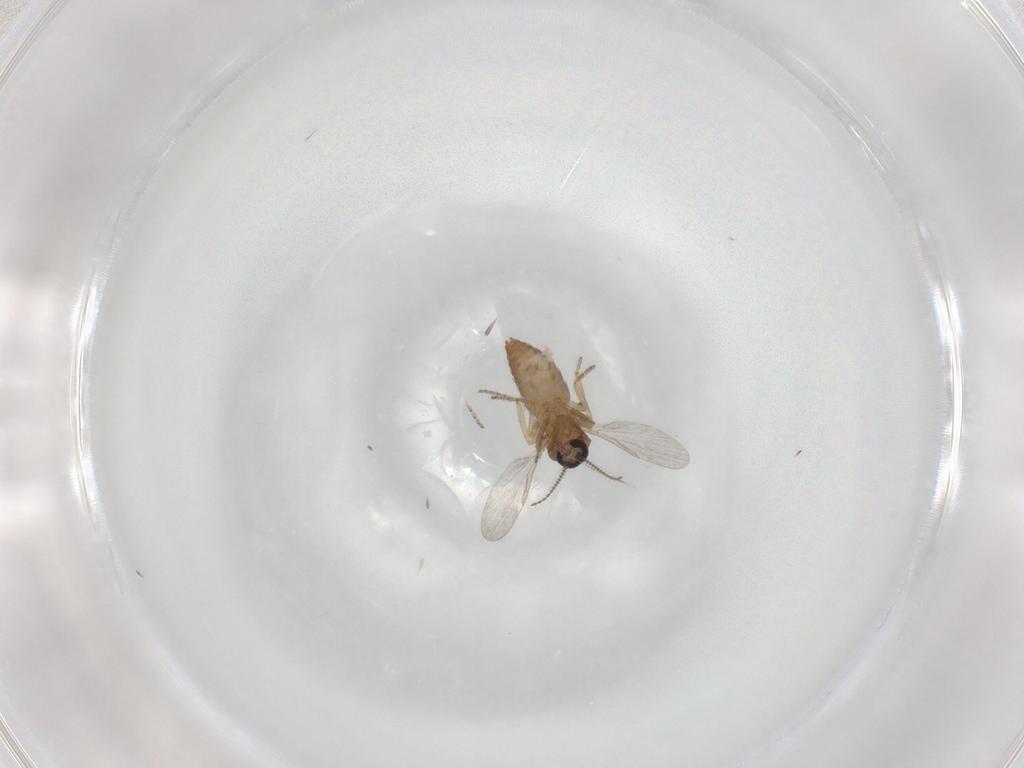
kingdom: Animalia
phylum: Arthropoda
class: Insecta
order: Diptera
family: Ceratopogonidae
